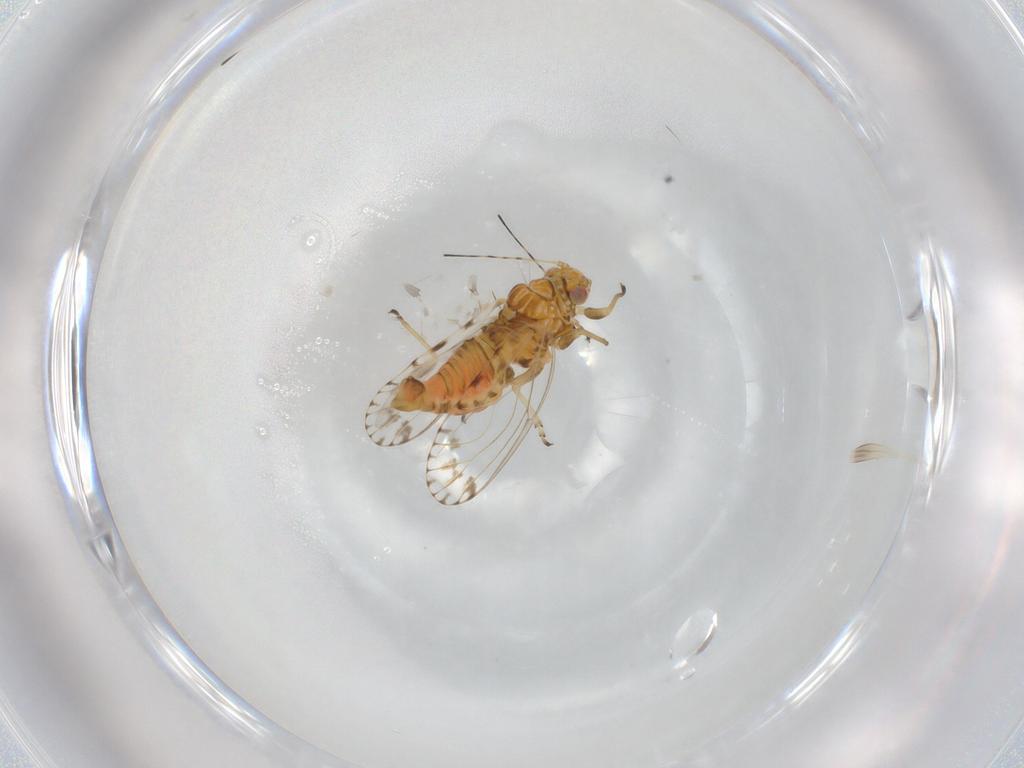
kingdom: Animalia
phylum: Arthropoda
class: Insecta
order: Hemiptera
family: Psyllidae
